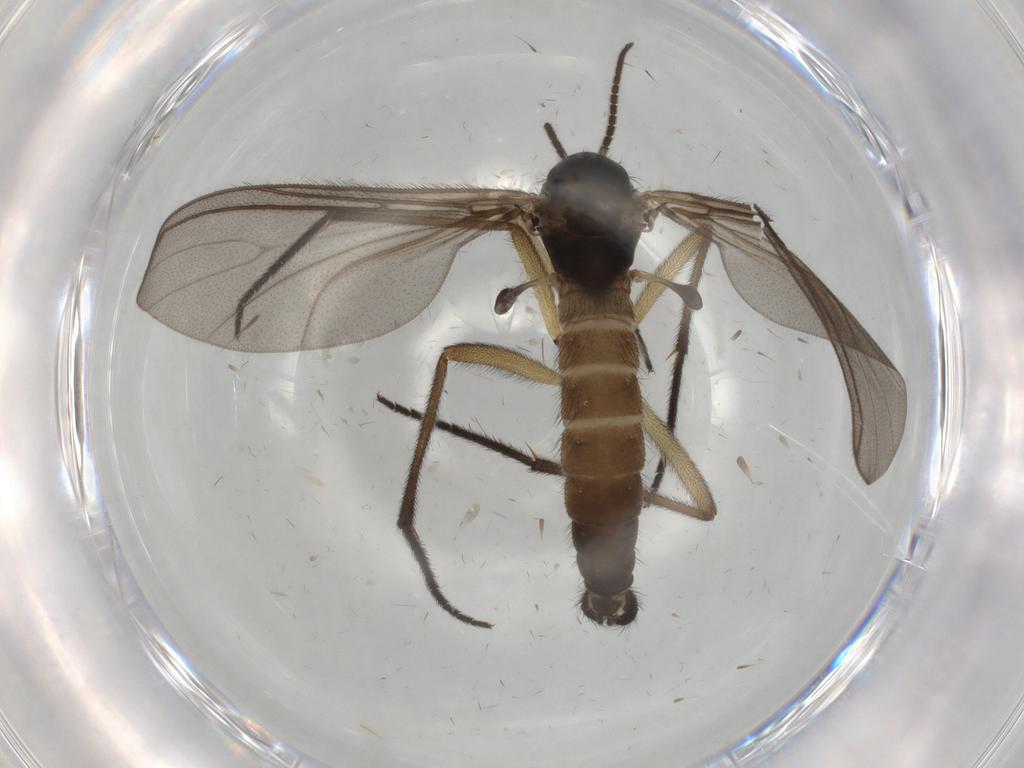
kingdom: Animalia
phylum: Arthropoda
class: Insecta
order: Diptera
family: Sciaridae
